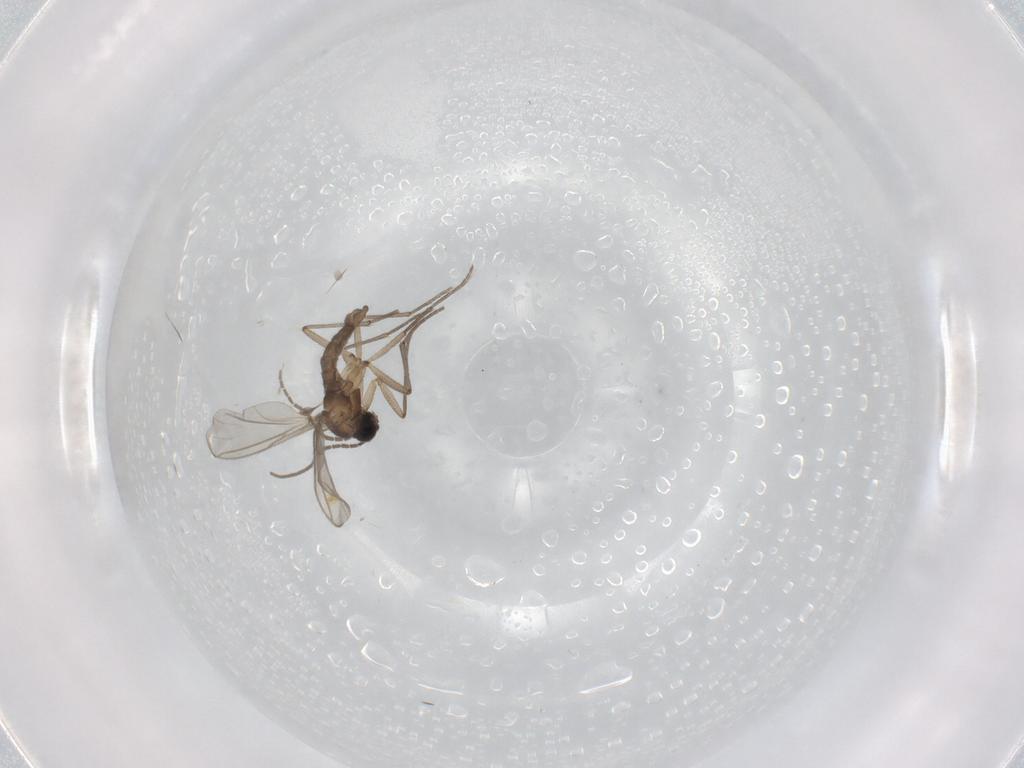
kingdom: Animalia
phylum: Arthropoda
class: Insecta
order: Diptera
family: Sciaridae
